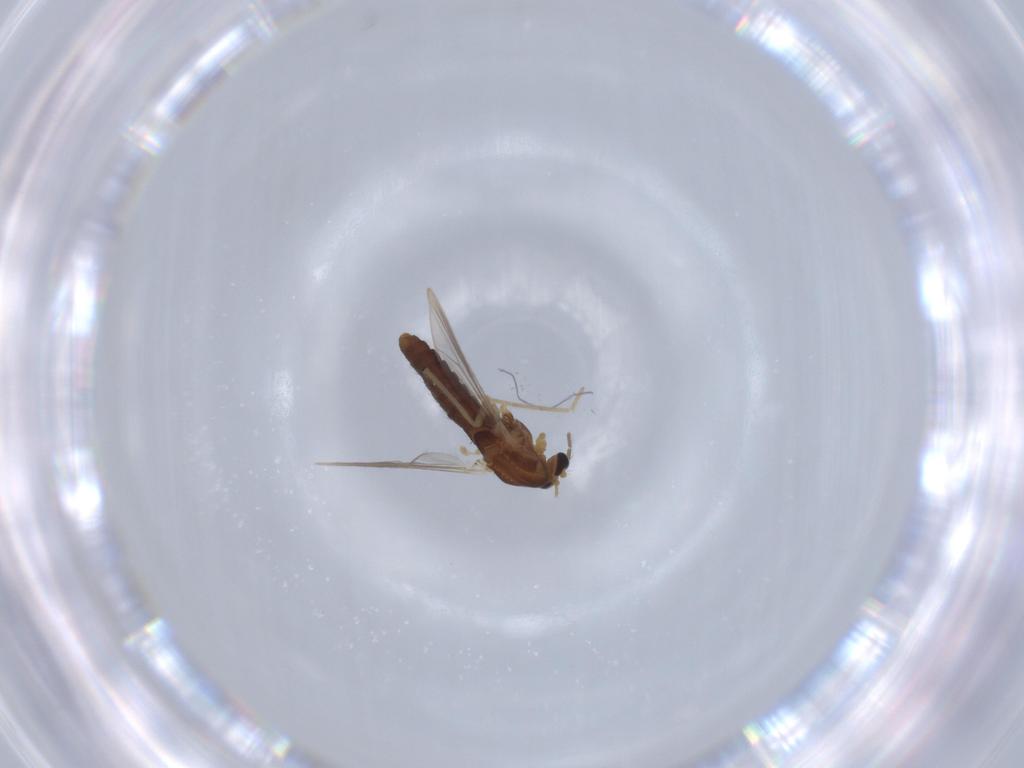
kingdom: Animalia
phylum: Arthropoda
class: Insecta
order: Diptera
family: Chironomidae
